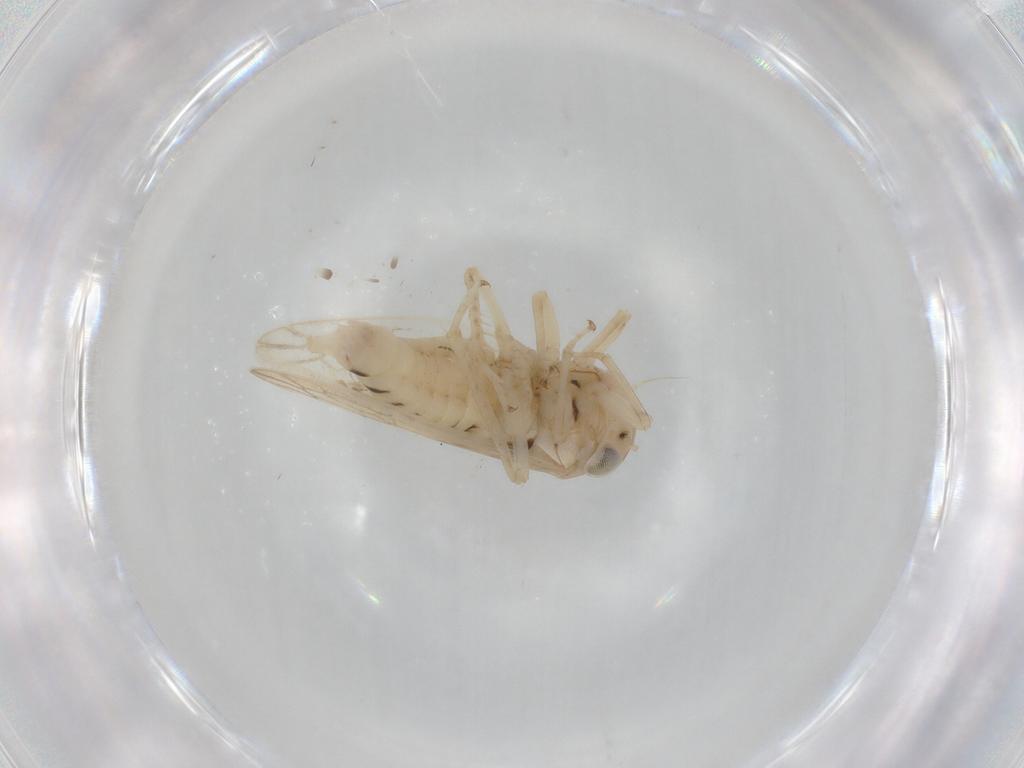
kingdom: Animalia
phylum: Arthropoda
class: Insecta
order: Hemiptera
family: Cicadellidae
